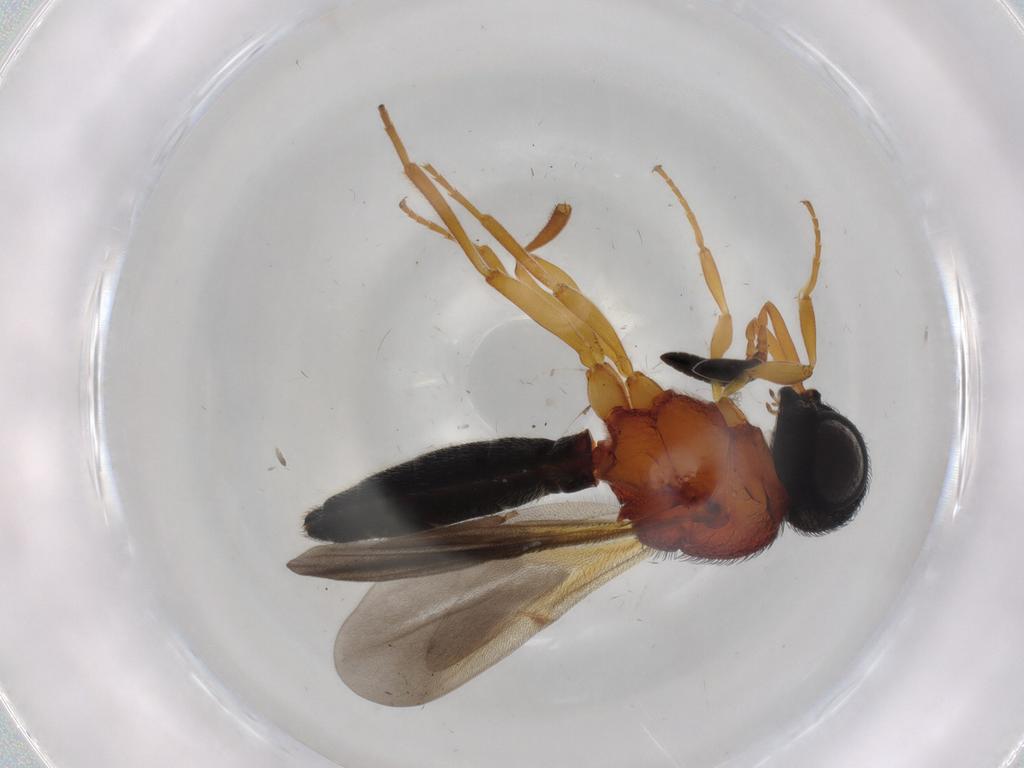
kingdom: Animalia
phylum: Arthropoda
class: Insecta
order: Hymenoptera
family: Scelionidae
